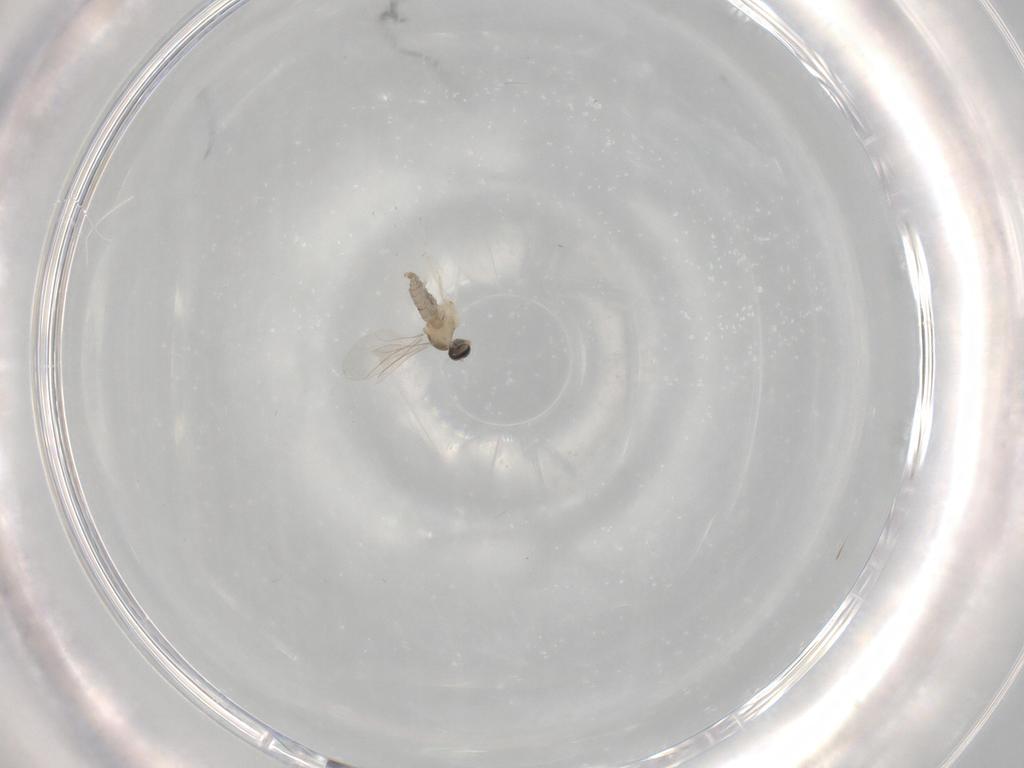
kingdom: Animalia
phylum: Arthropoda
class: Insecta
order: Diptera
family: Cecidomyiidae
